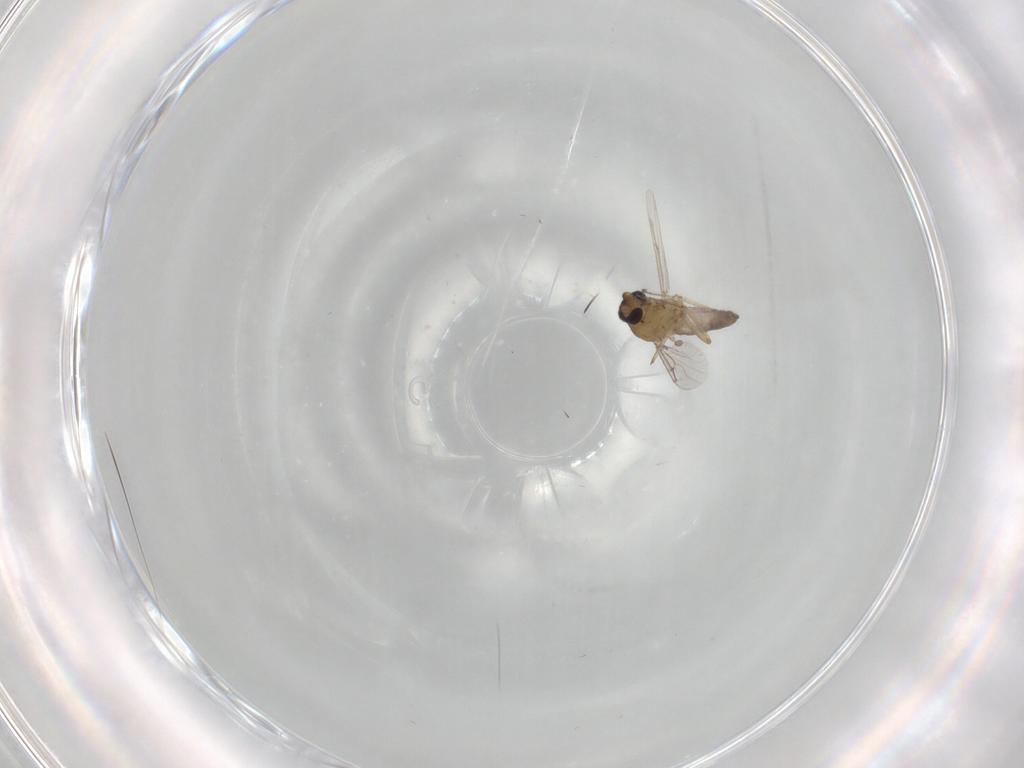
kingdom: Animalia
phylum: Arthropoda
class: Insecta
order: Diptera
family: Ceratopogonidae
